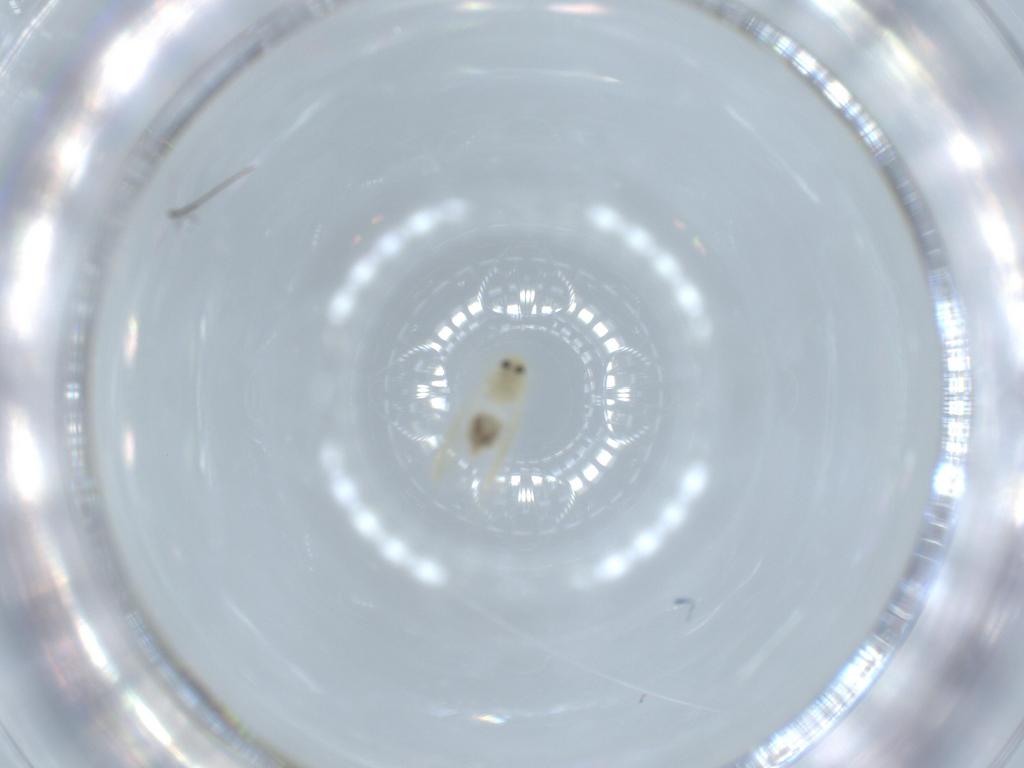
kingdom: Animalia
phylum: Arthropoda
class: Insecta
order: Hemiptera
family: Aleyrodidae
